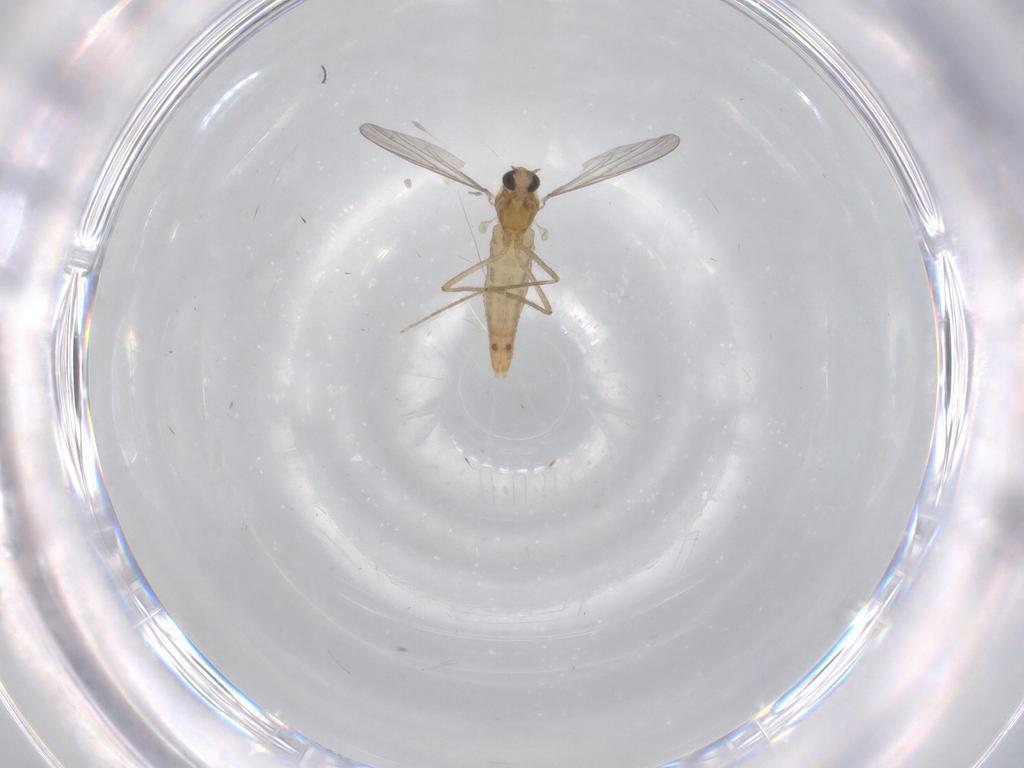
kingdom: Animalia
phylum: Arthropoda
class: Insecta
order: Diptera
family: Chironomidae
